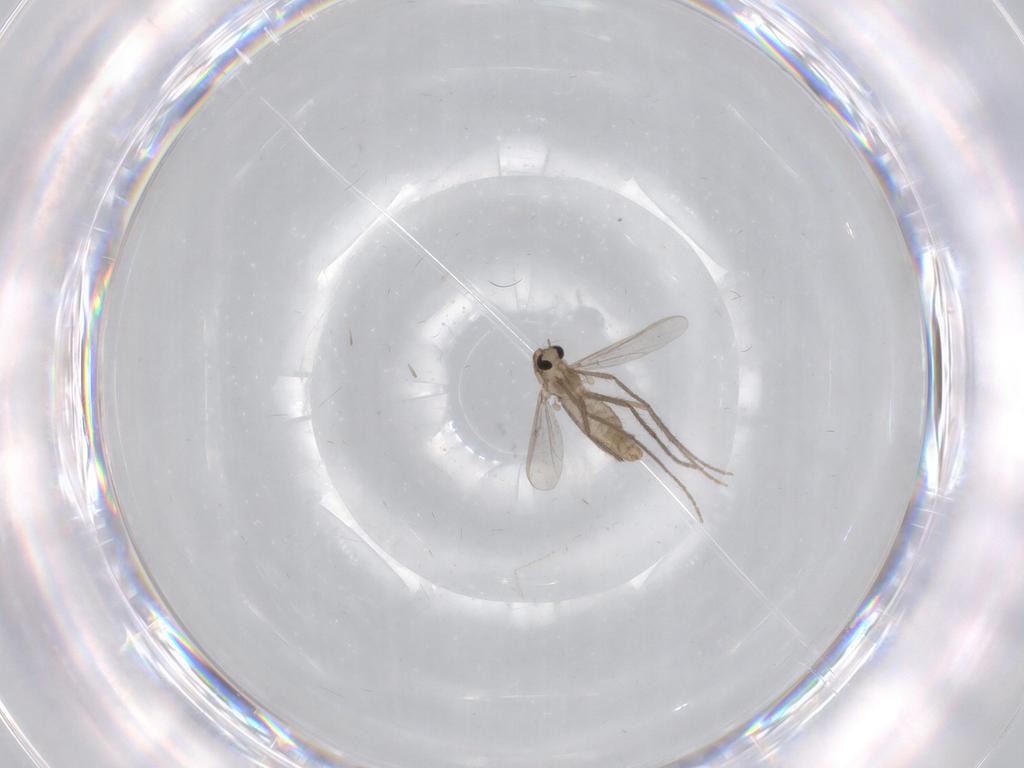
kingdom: Animalia
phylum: Arthropoda
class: Insecta
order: Diptera
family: Chironomidae
